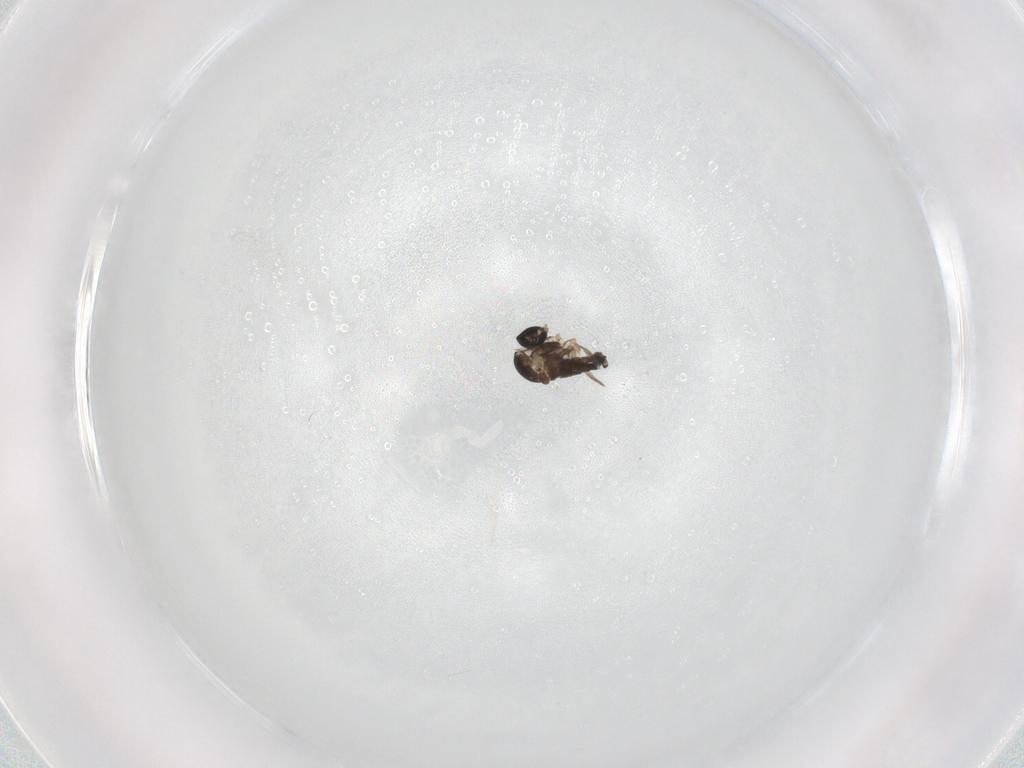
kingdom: Animalia
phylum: Arthropoda
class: Insecta
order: Diptera
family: Cecidomyiidae
